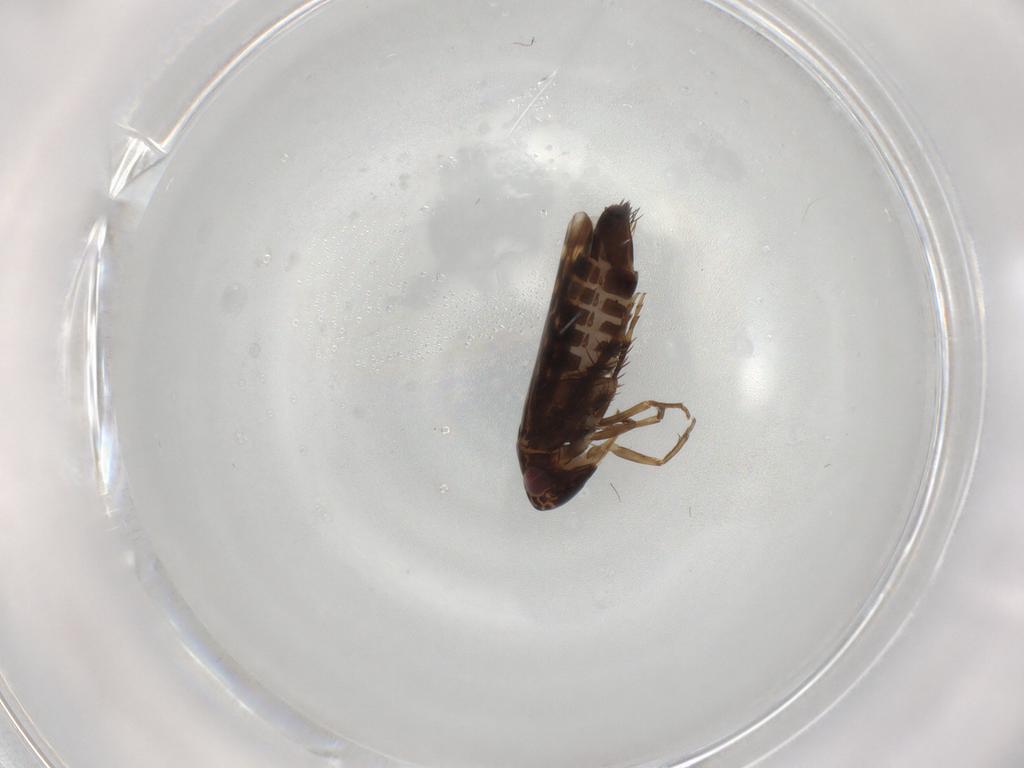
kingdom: Animalia
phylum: Arthropoda
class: Insecta
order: Hemiptera
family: Cicadellidae
